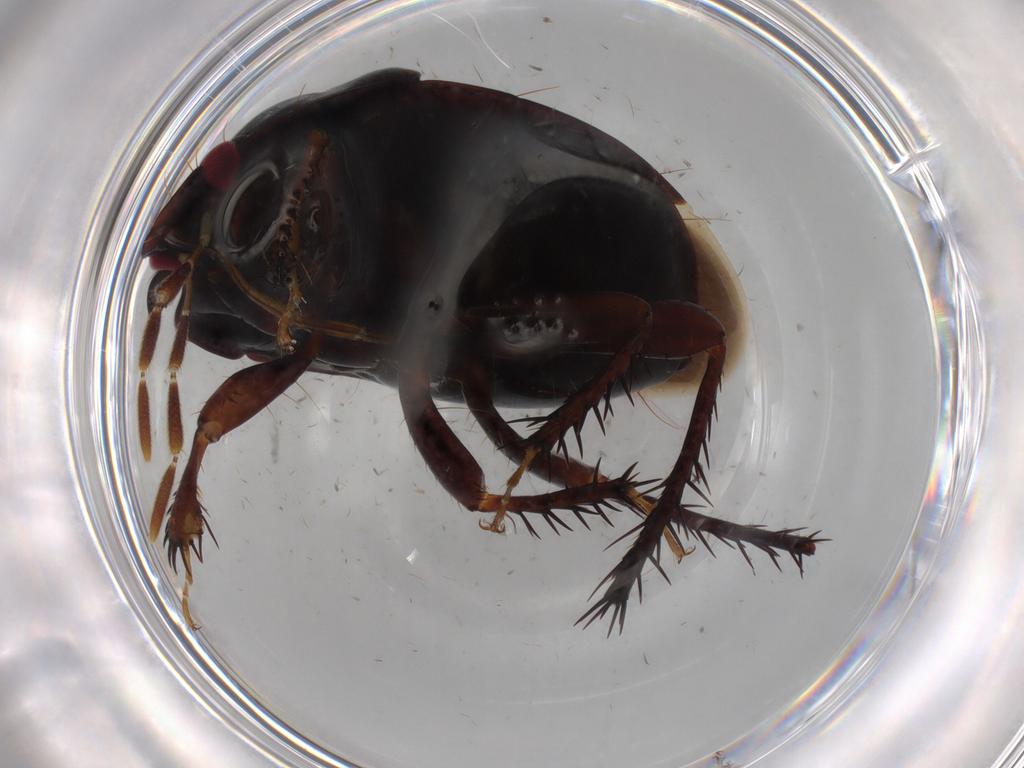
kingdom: Animalia
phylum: Arthropoda
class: Insecta
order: Hemiptera
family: Cydnidae
